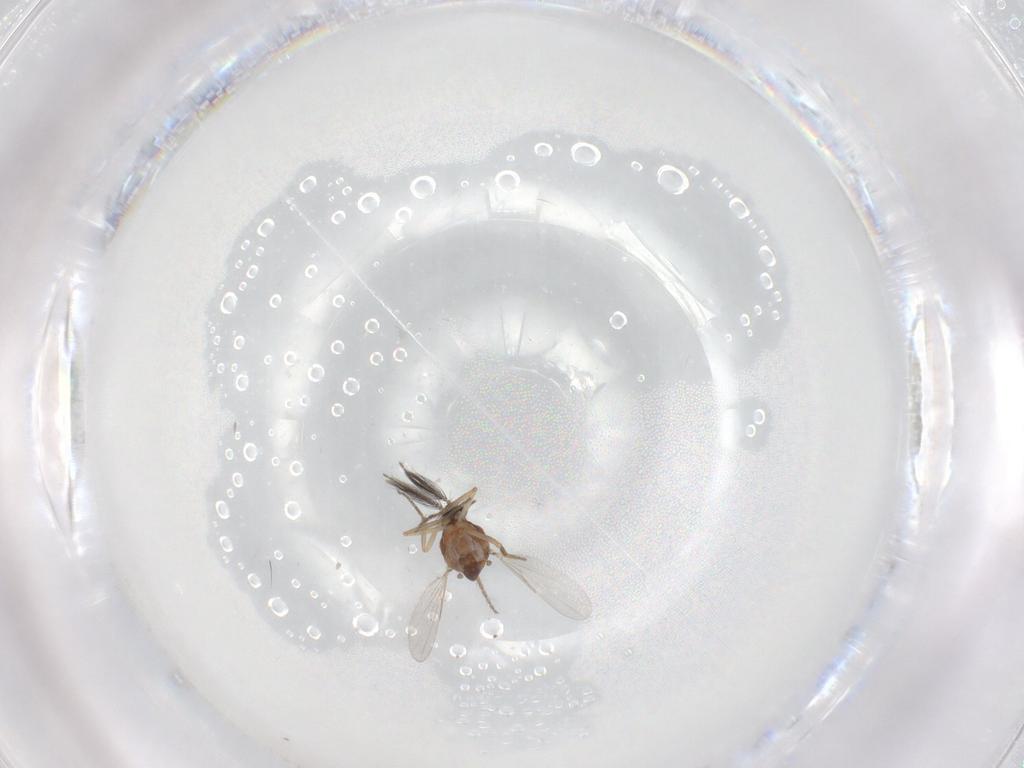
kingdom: Animalia
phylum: Arthropoda
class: Insecta
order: Diptera
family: Ceratopogonidae
